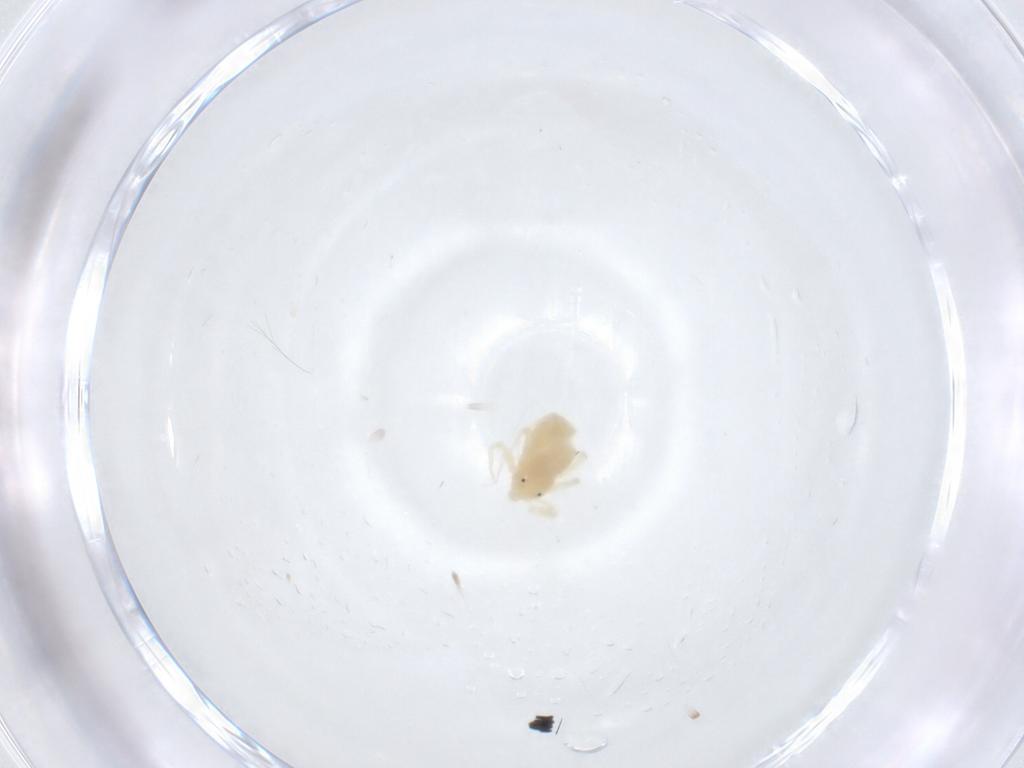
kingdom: Animalia
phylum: Arthropoda
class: Arachnida
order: Trombidiformes
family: Anystidae
